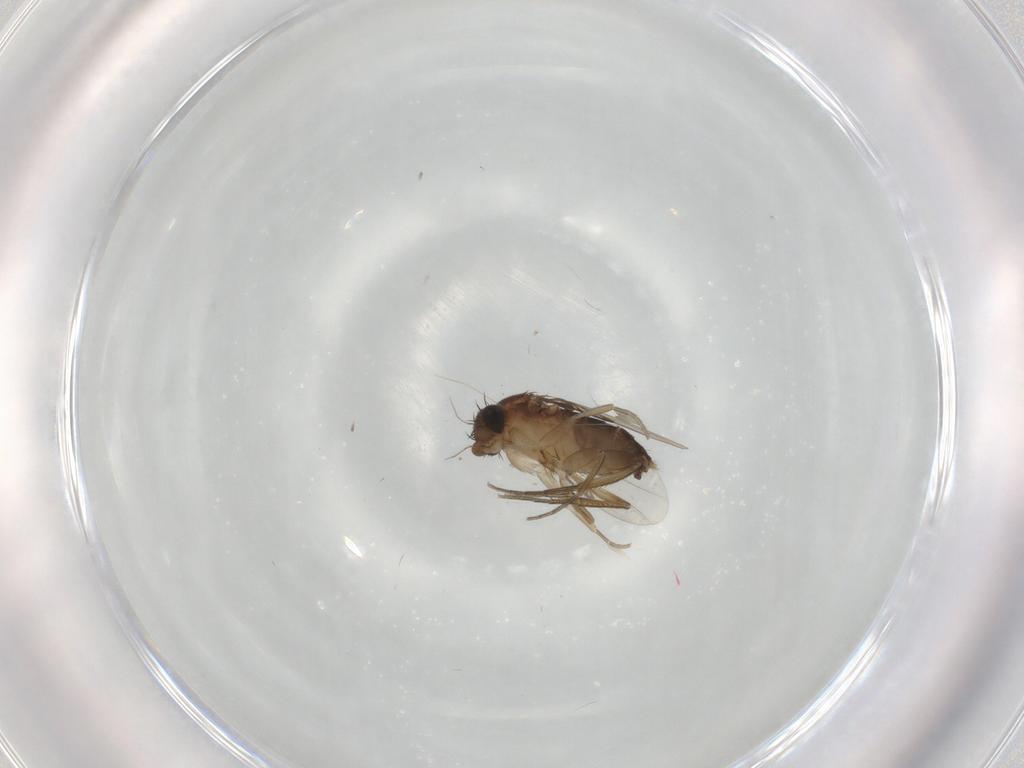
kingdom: Animalia
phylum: Arthropoda
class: Insecta
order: Diptera
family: Phoridae
